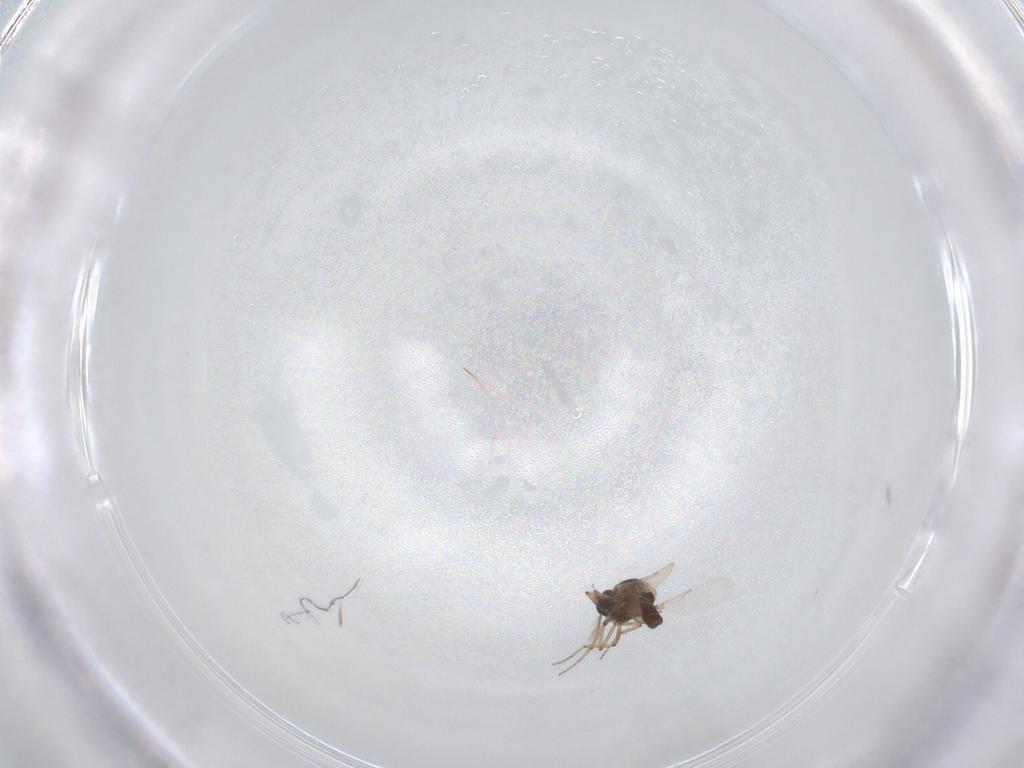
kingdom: Animalia
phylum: Arthropoda
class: Insecta
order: Diptera
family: Ceratopogonidae
